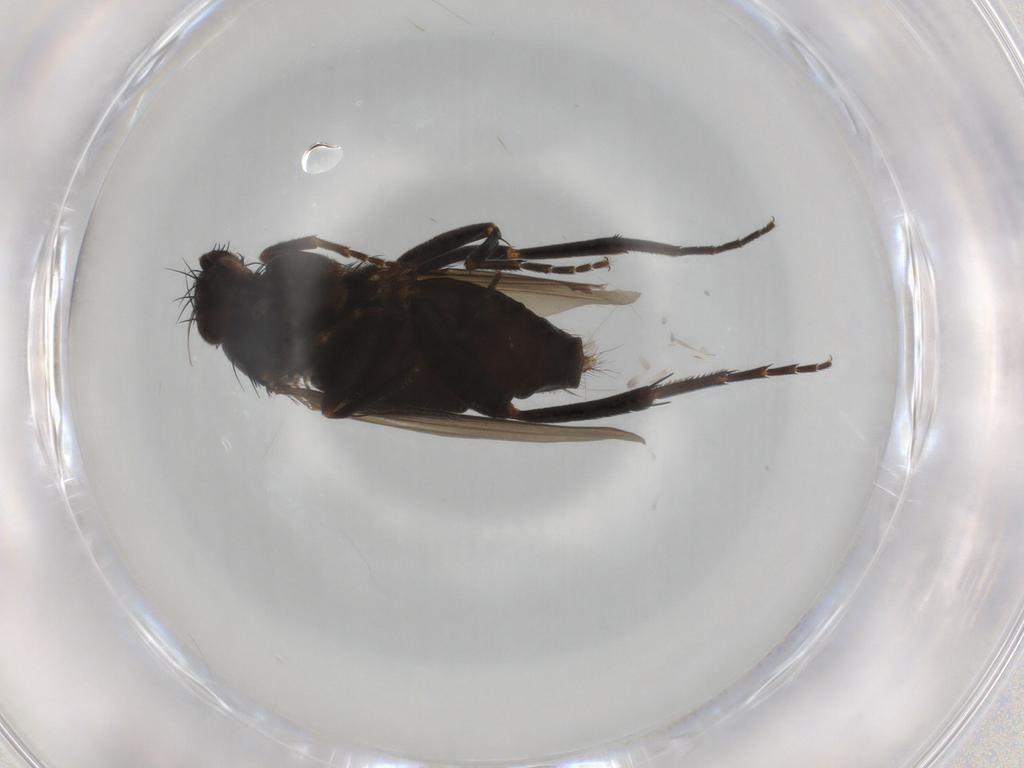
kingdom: Animalia
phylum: Arthropoda
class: Insecta
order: Diptera
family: Phoridae
